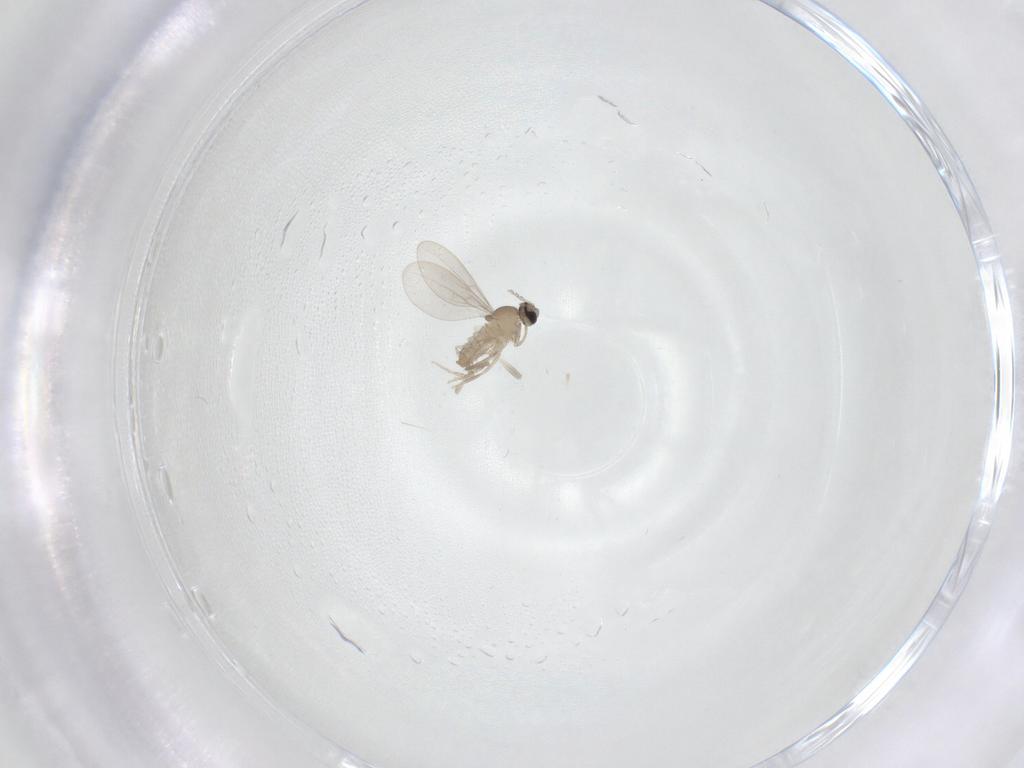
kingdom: Animalia
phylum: Arthropoda
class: Insecta
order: Diptera
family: Cecidomyiidae
